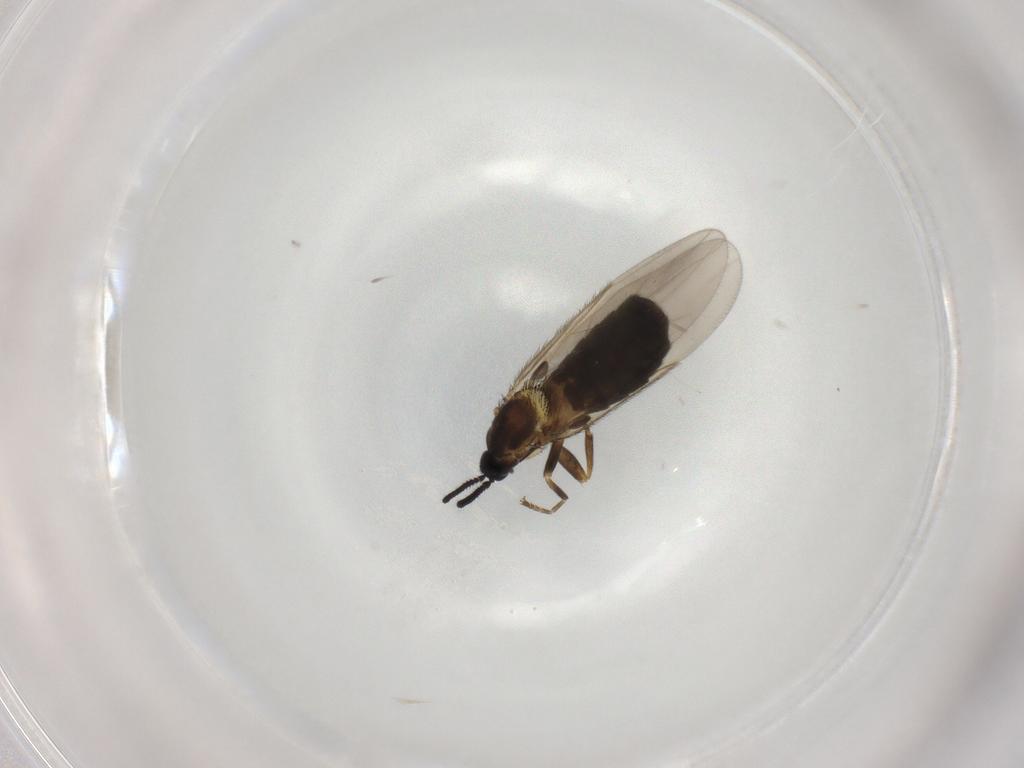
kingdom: Animalia
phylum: Arthropoda
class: Insecta
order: Diptera
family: Scatopsidae
